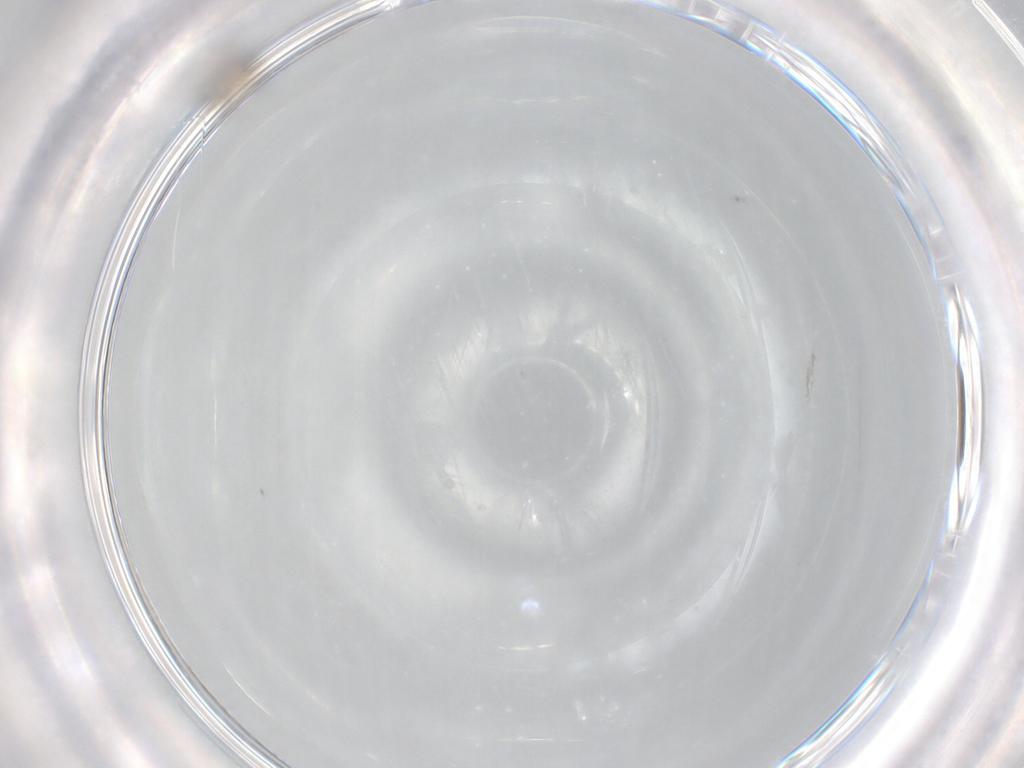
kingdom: Animalia
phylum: Arthropoda
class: Insecta
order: Hymenoptera
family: Mymaridae
